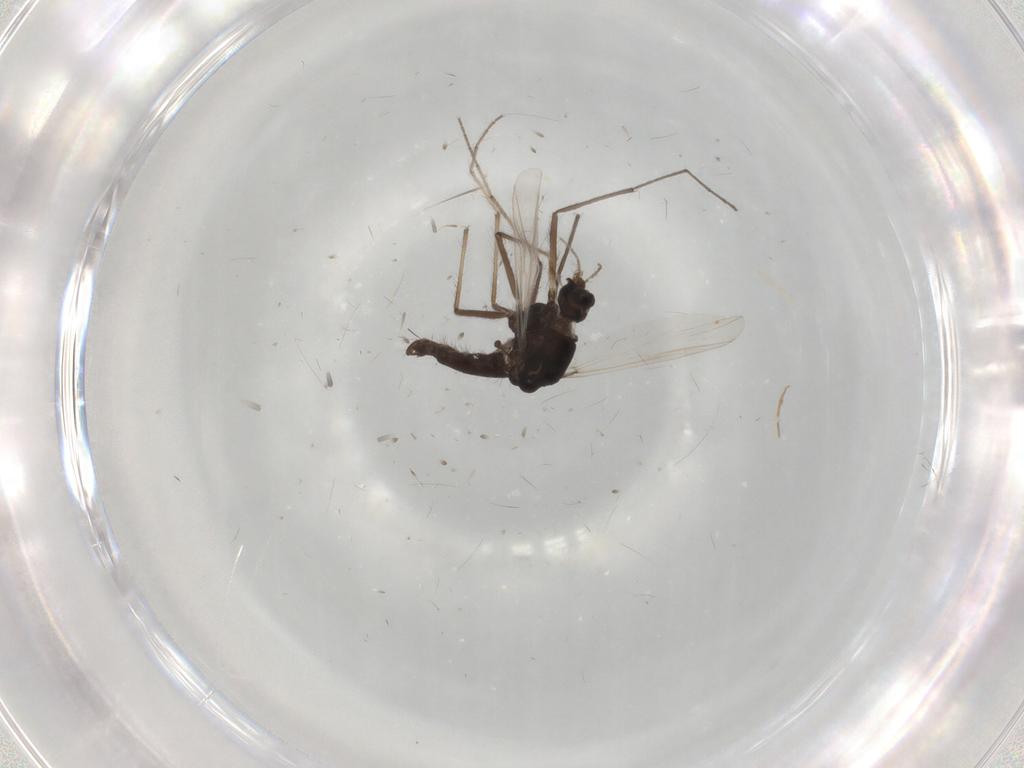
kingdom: Animalia
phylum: Arthropoda
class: Insecta
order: Diptera
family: Chironomidae
